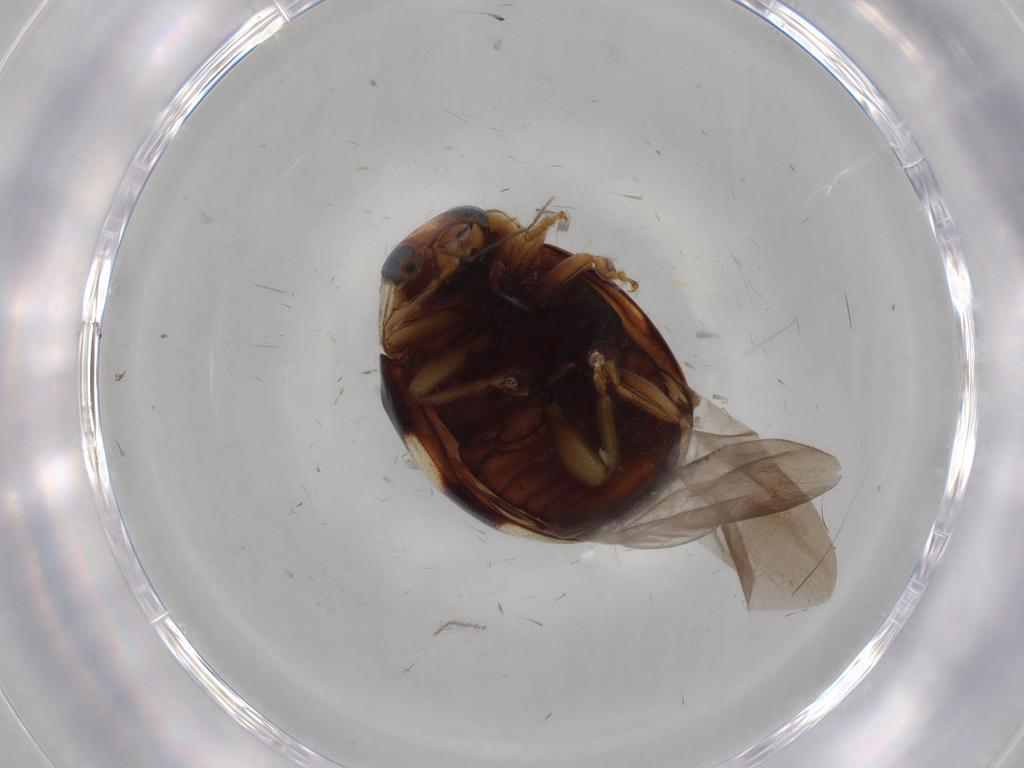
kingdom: Animalia
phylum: Arthropoda
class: Insecta
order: Coleoptera
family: Coccinellidae
